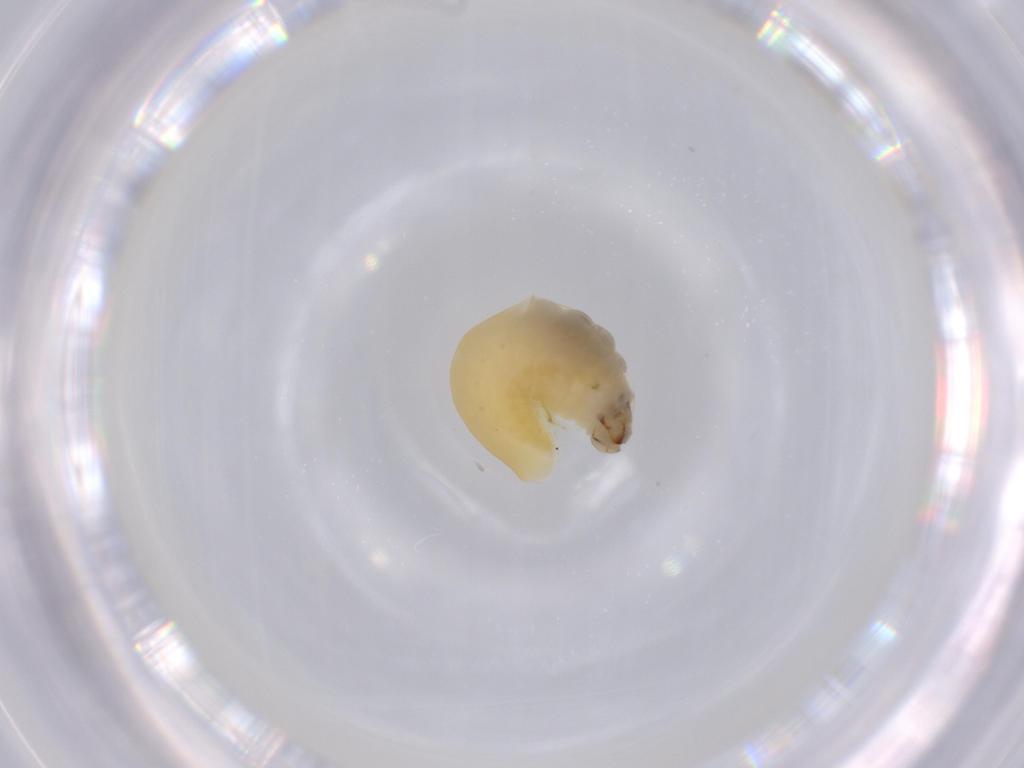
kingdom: Animalia
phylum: Arthropoda
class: Insecta
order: Hymenoptera
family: Dryinidae
